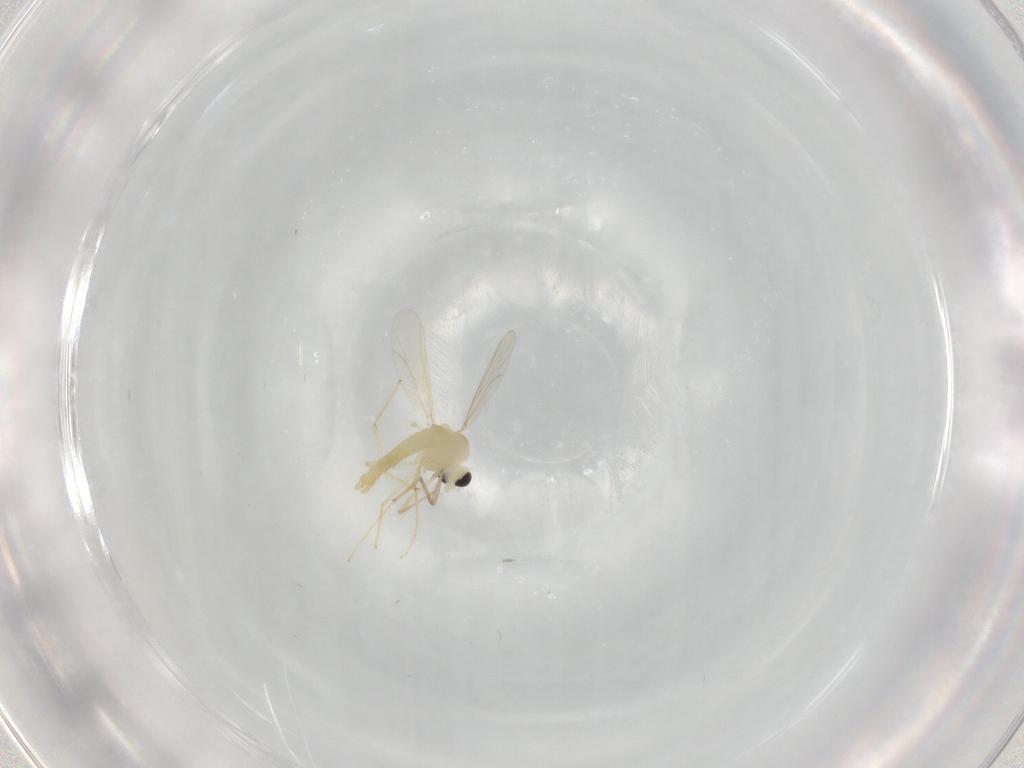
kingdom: Animalia
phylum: Arthropoda
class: Insecta
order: Diptera
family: Chironomidae
